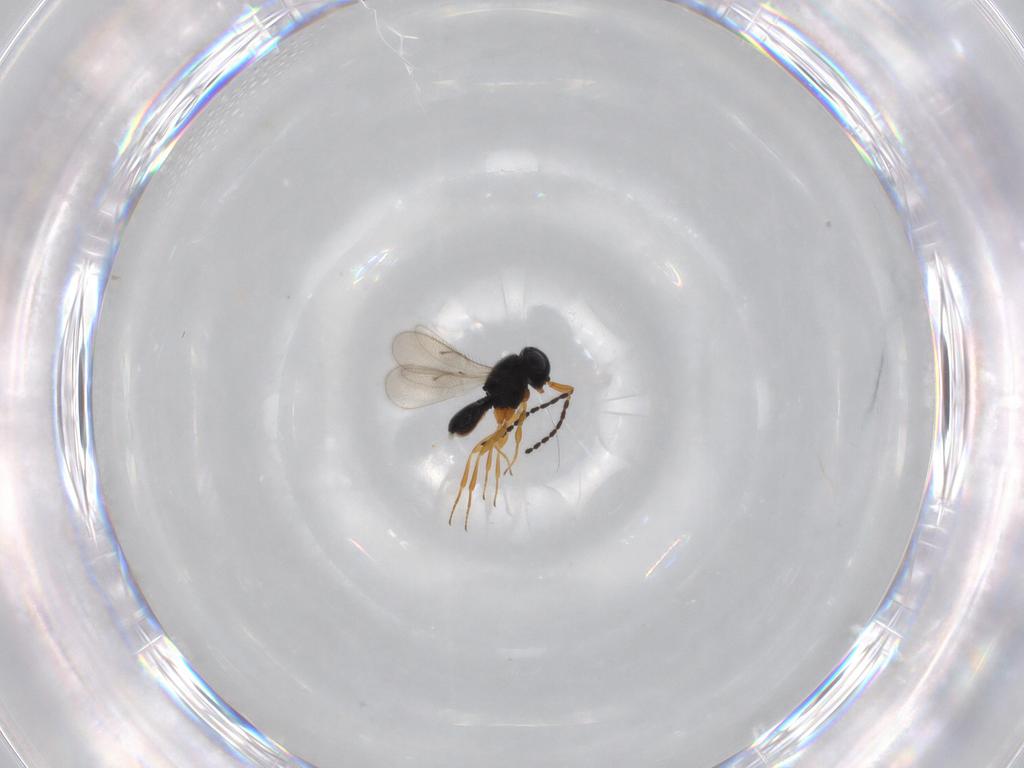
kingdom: Animalia
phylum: Arthropoda
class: Insecta
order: Hymenoptera
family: Scelionidae
